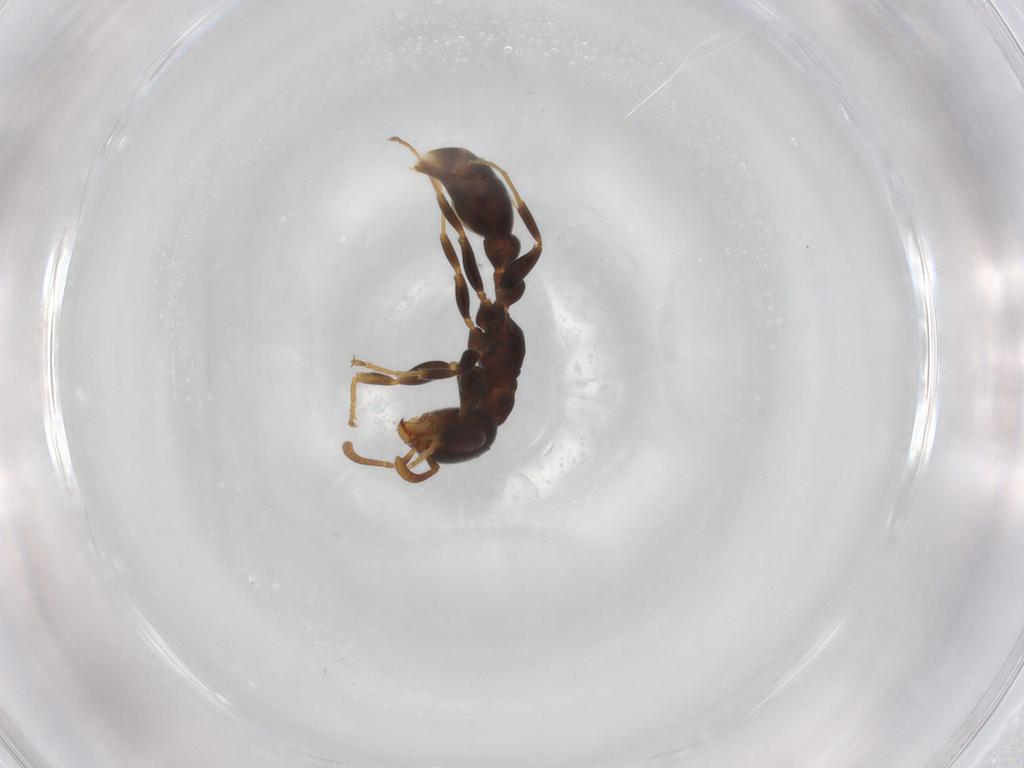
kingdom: Animalia
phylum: Arthropoda
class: Insecta
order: Hymenoptera
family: Formicidae
